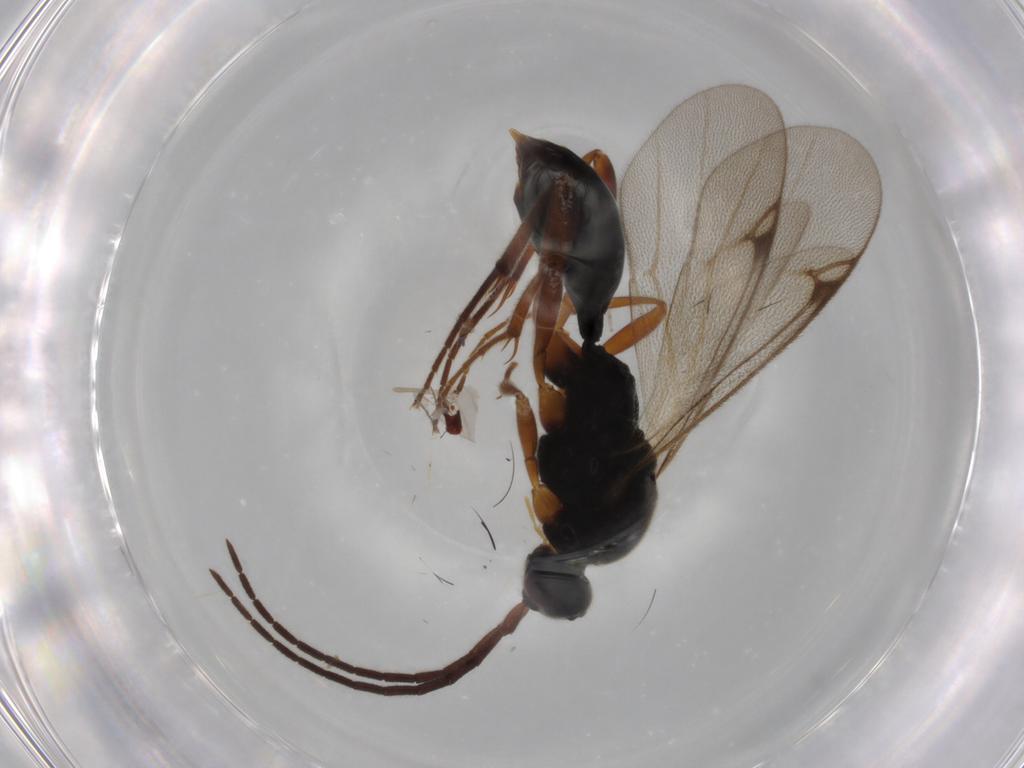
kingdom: Animalia
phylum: Arthropoda
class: Insecta
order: Hymenoptera
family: Proctotrupidae
